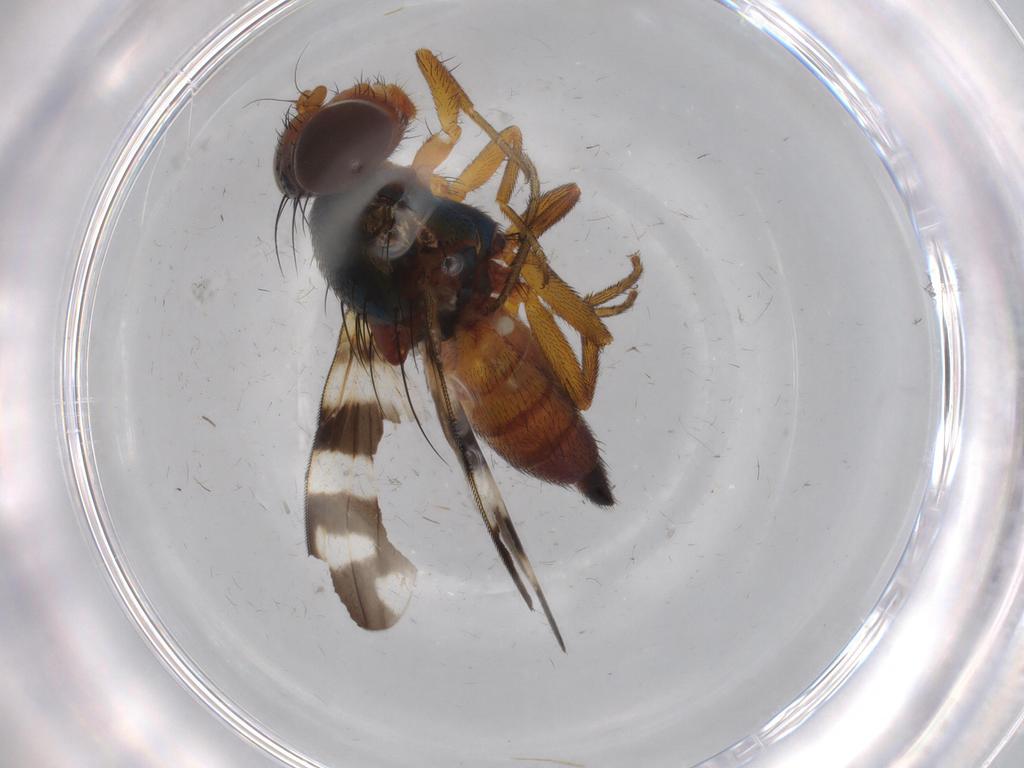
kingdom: Animalia
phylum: Arthropoda
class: Insecta
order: Diptera
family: Ulidiidae
